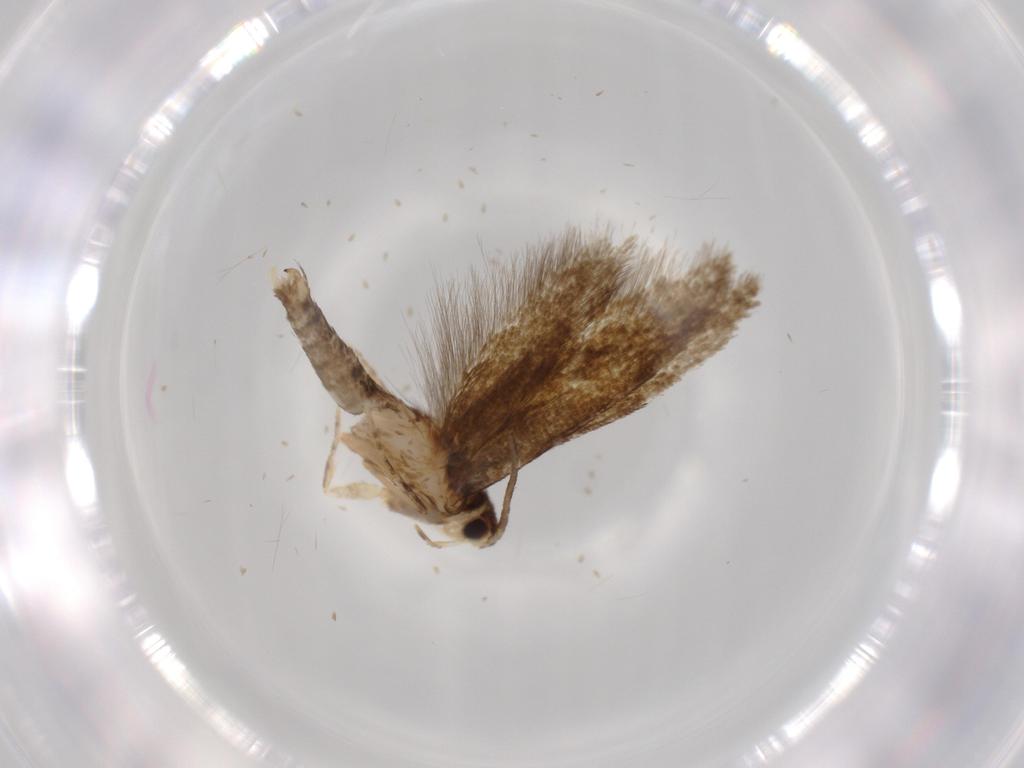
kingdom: Animalia
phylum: Arthropoda
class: Insecta
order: Lepidoptera
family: Tineidae
